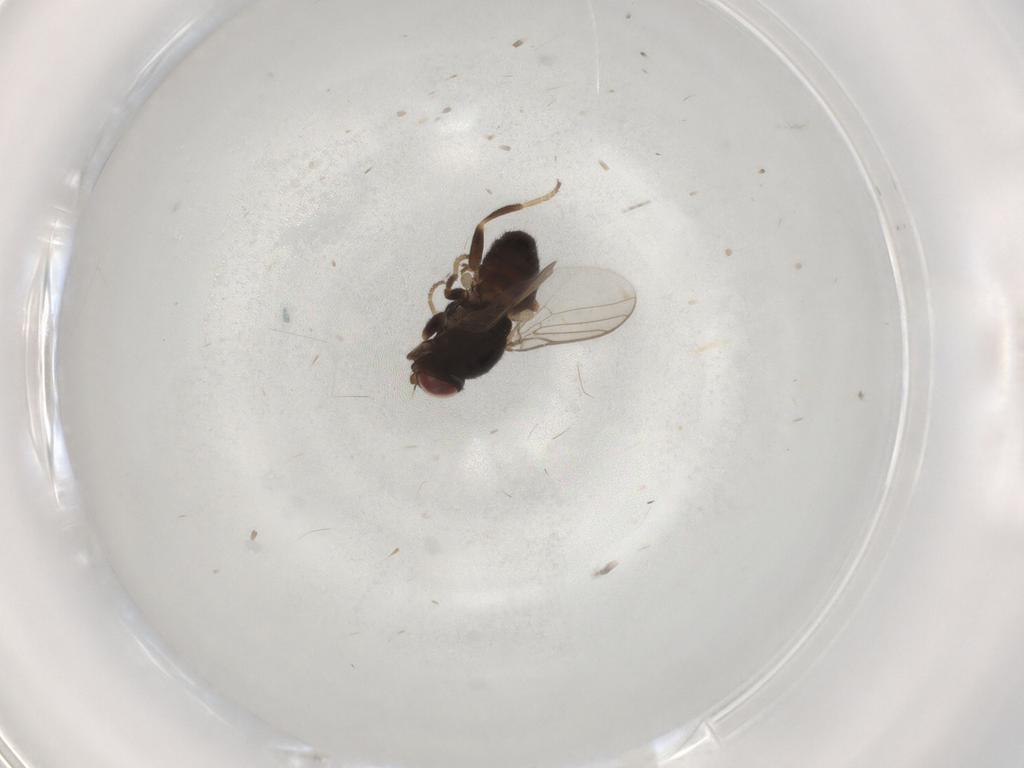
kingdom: Animalia
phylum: Arthropoda
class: Insecta
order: Diptera
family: Chloropidae
